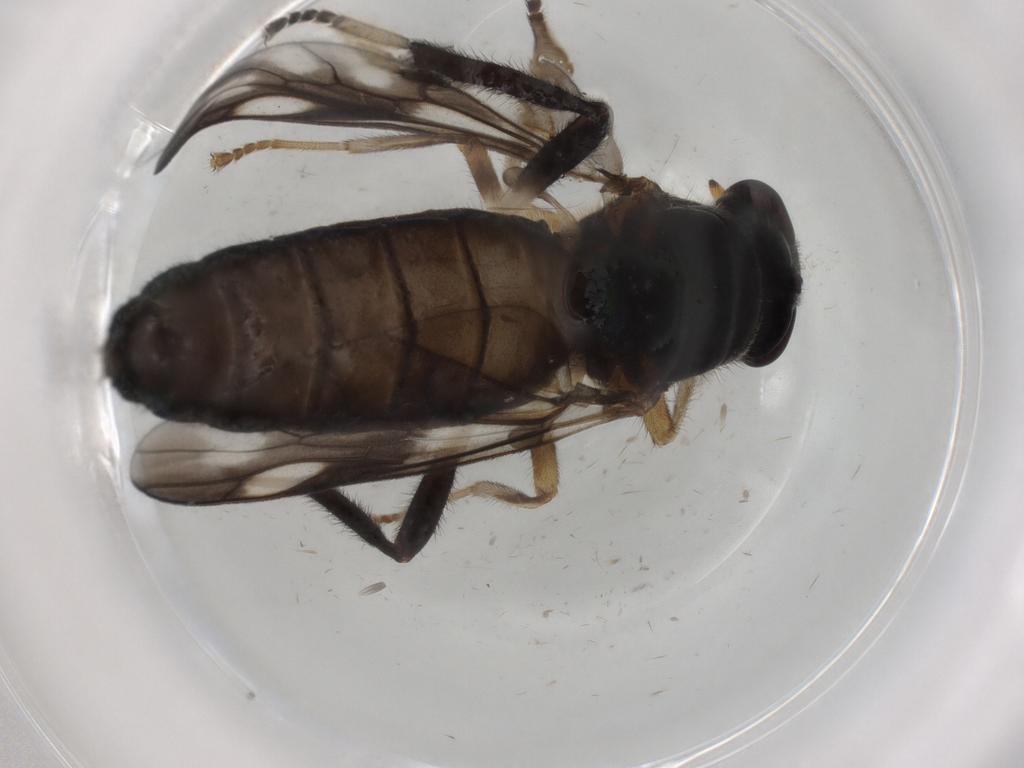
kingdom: Animalia
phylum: Arthropoda
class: Insecta
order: Diptera
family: Stratiomyidae
